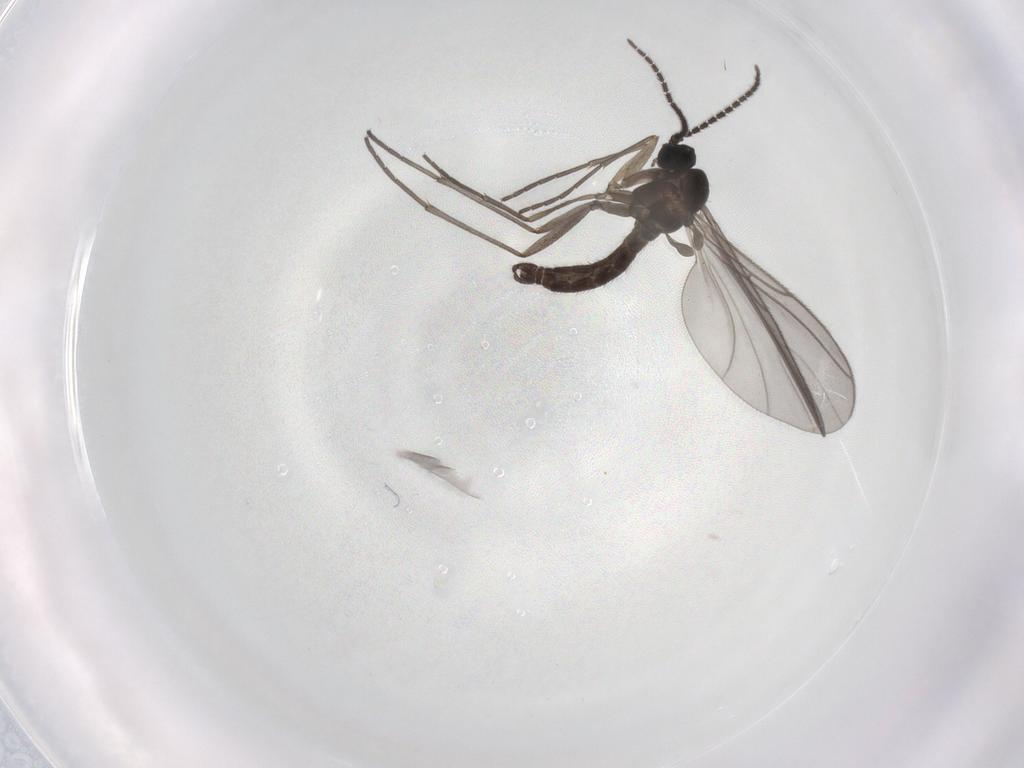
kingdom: Animalia
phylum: Arthropoda
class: Insecta
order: Diptera
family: Sciaridae
